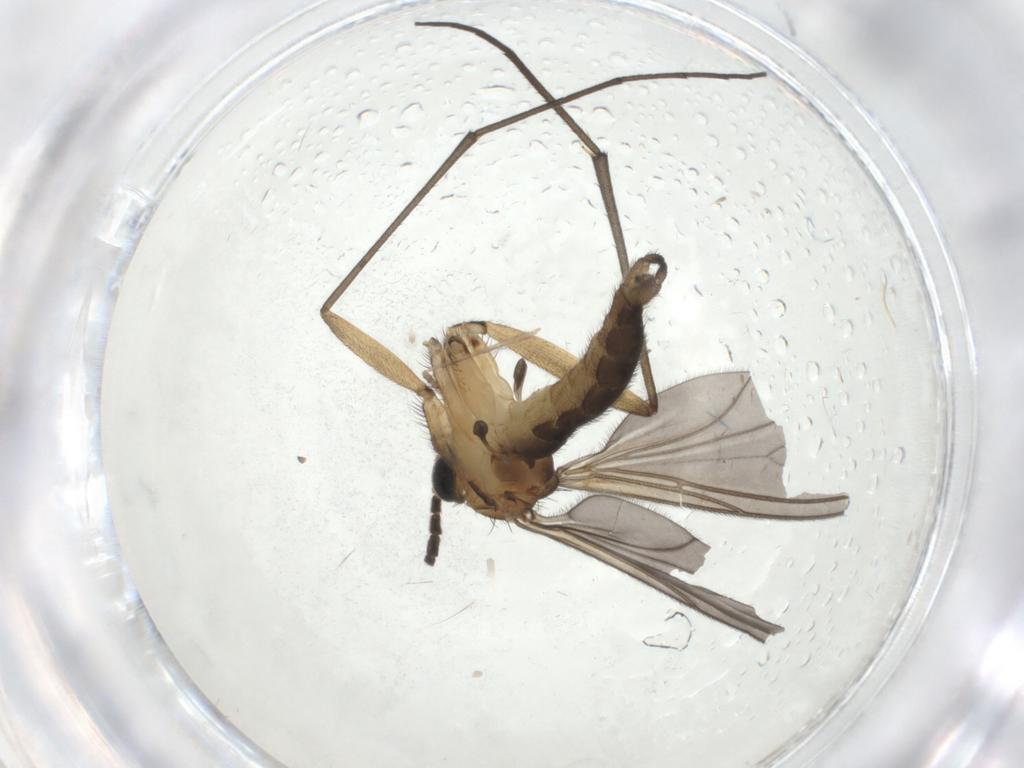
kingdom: Animalia
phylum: Arthropoda
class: Insecta
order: Diptera
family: Sciaridae
